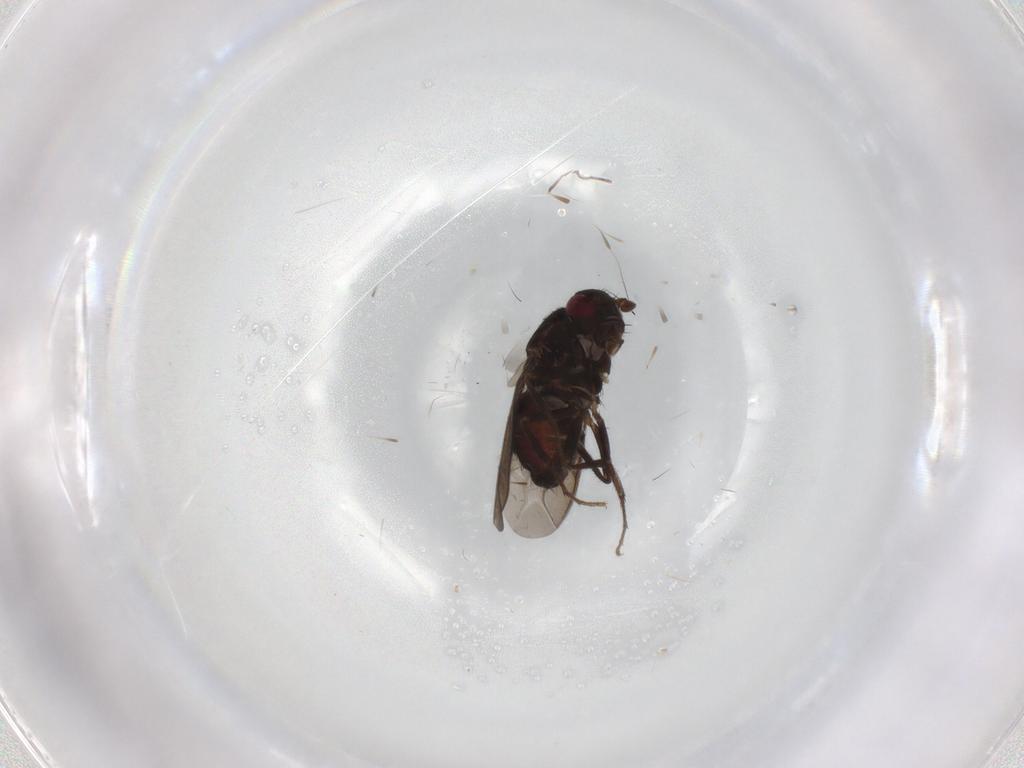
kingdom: Animalia
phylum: Arthropoda
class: Insecta
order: Diptera
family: Sphaeroceridae
